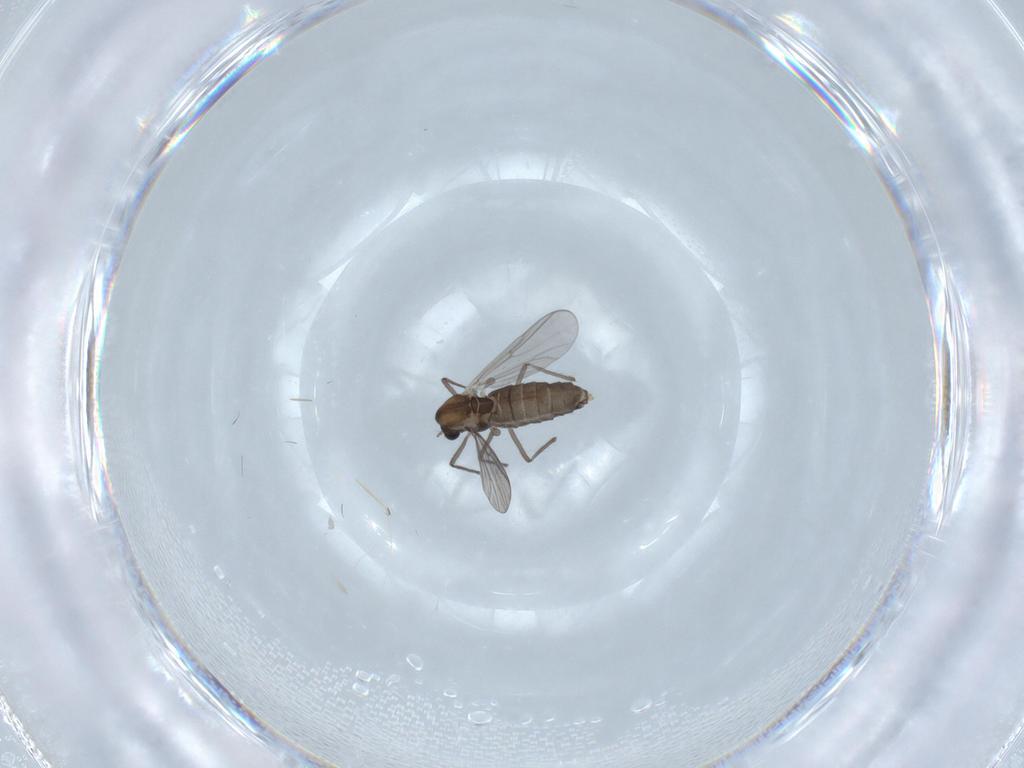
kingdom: Animalia
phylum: Arthropoda
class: Insecta
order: Diptera
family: Chironomidae
